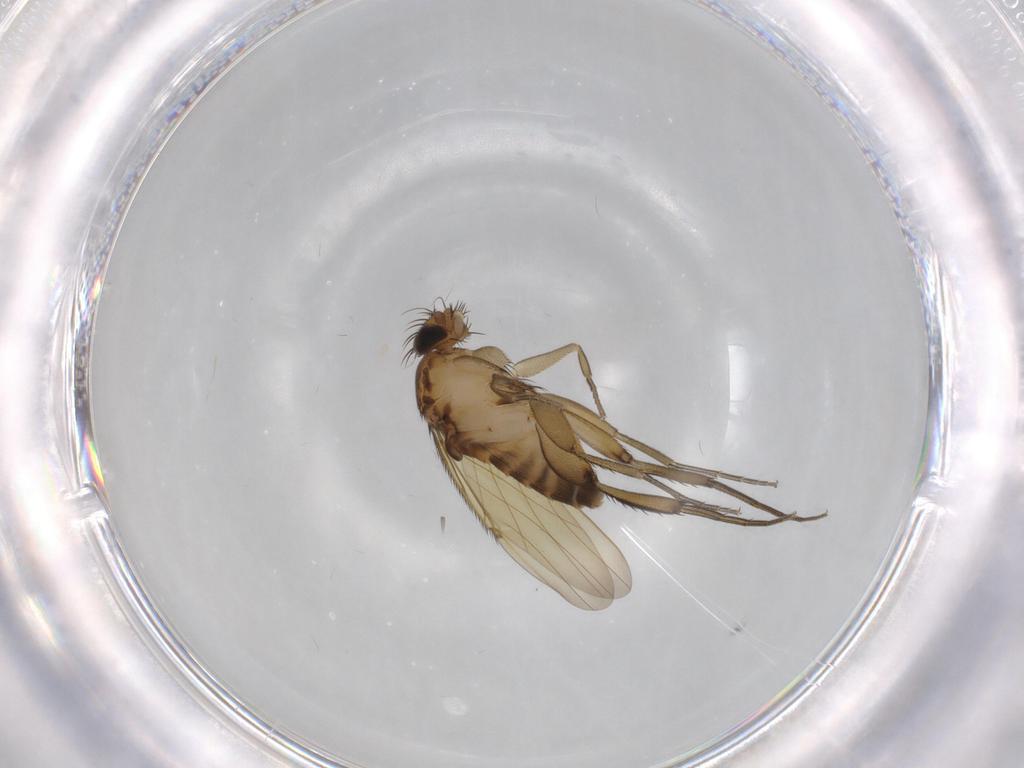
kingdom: Animalia
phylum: Arthropoda
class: Insecta
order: Diptera
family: Phoridae
